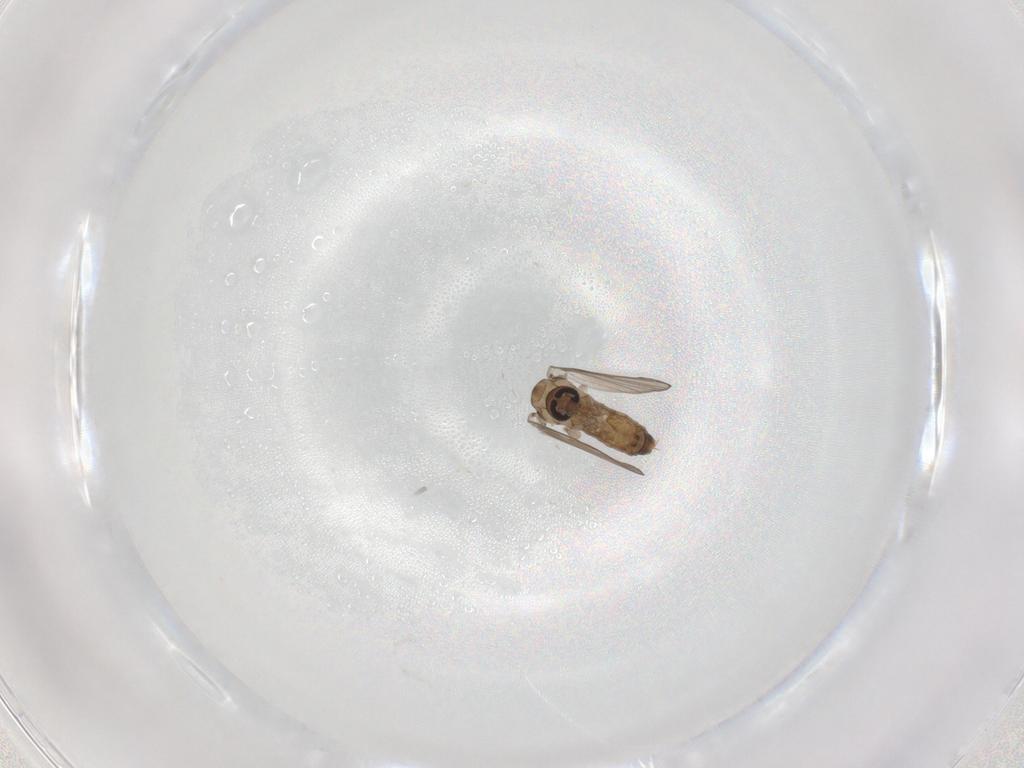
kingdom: Animalia
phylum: Arthropoda
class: Insecta
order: Diptera
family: Psychodidae
